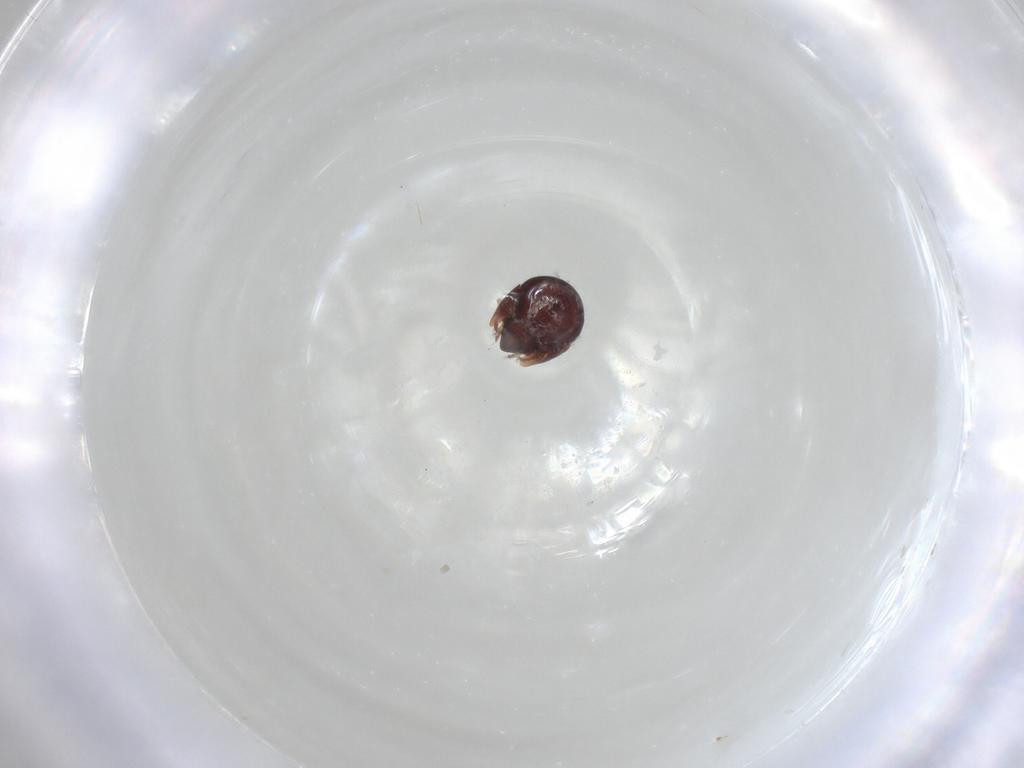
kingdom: Animalia
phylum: Arthropoda
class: Arachnida
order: Sarcoptiformes
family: Galumnidae
